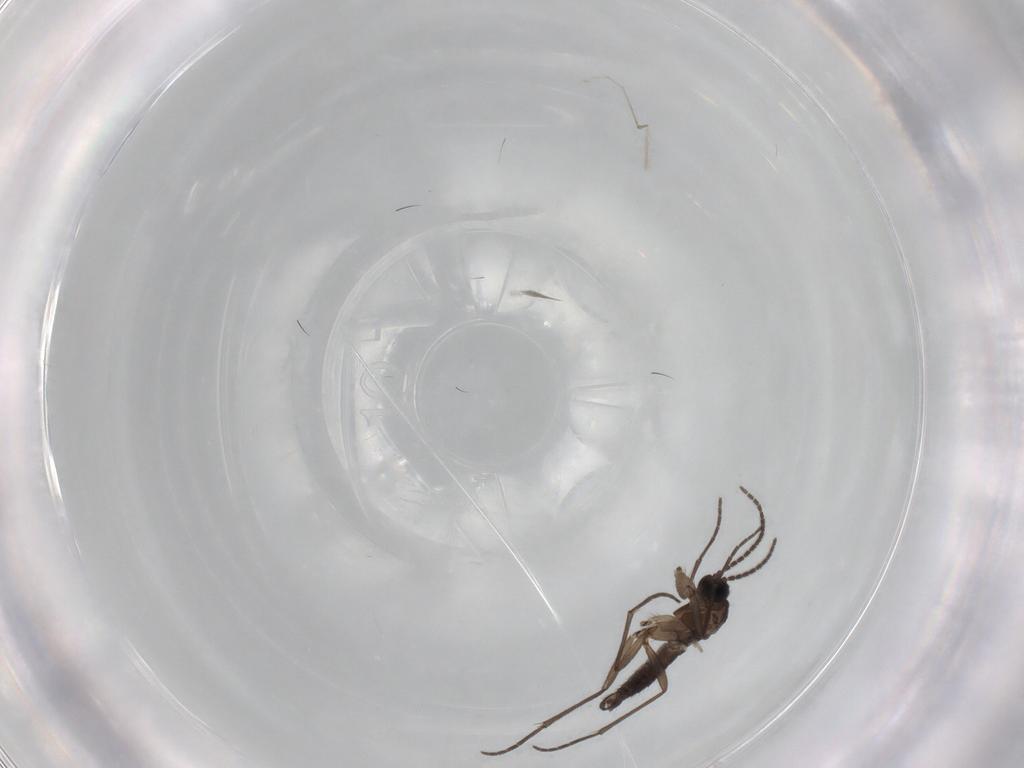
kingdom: Animalia
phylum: Arthropoda
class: Insecta
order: Diptera
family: Sciaridae
